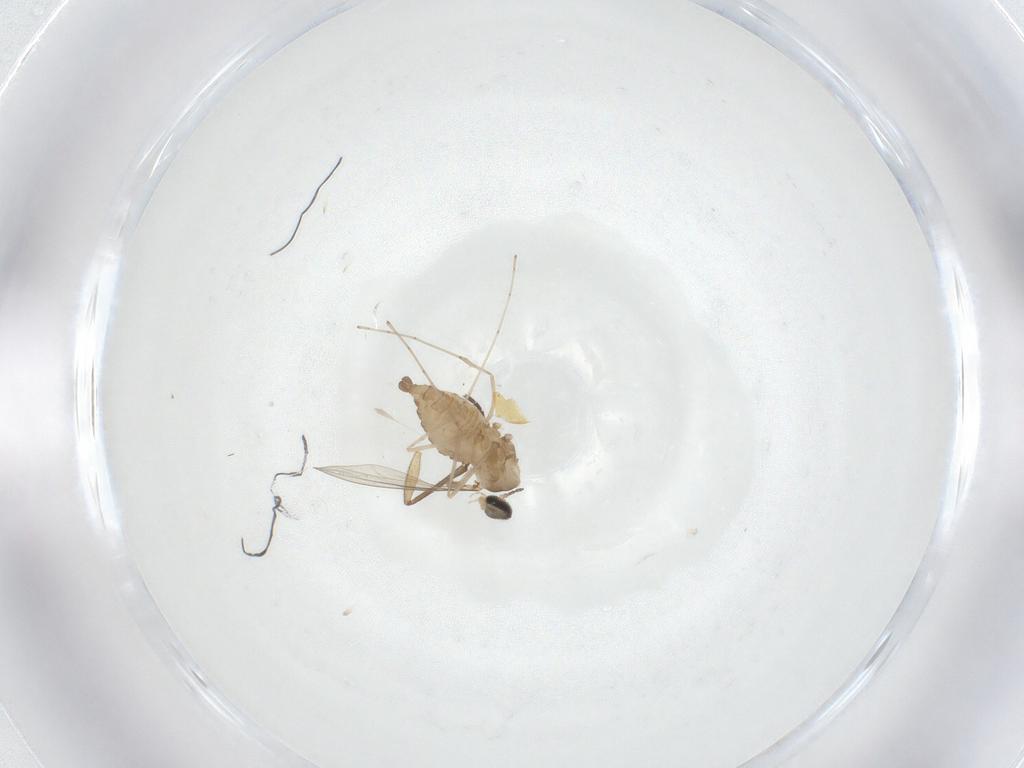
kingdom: Animalia
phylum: Arthropoda
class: Insecta
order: Diptera
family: Cecidomyiidae
